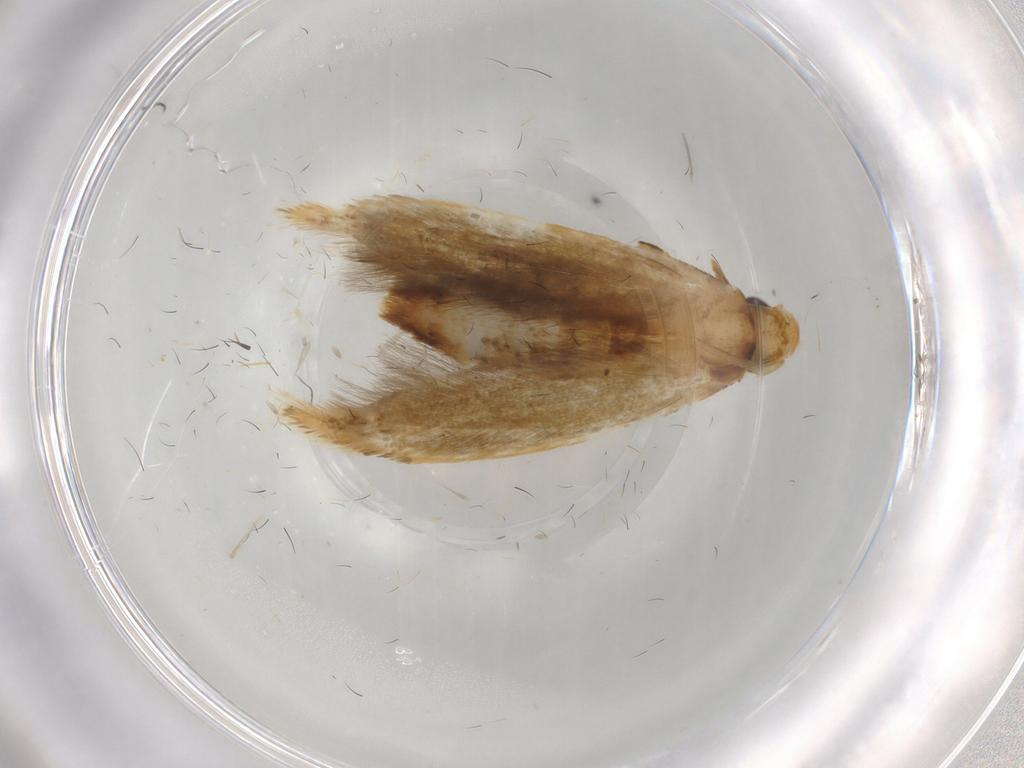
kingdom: Animalia
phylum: Arthropoda
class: Insecta
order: Lepidoptera
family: Tineidae
